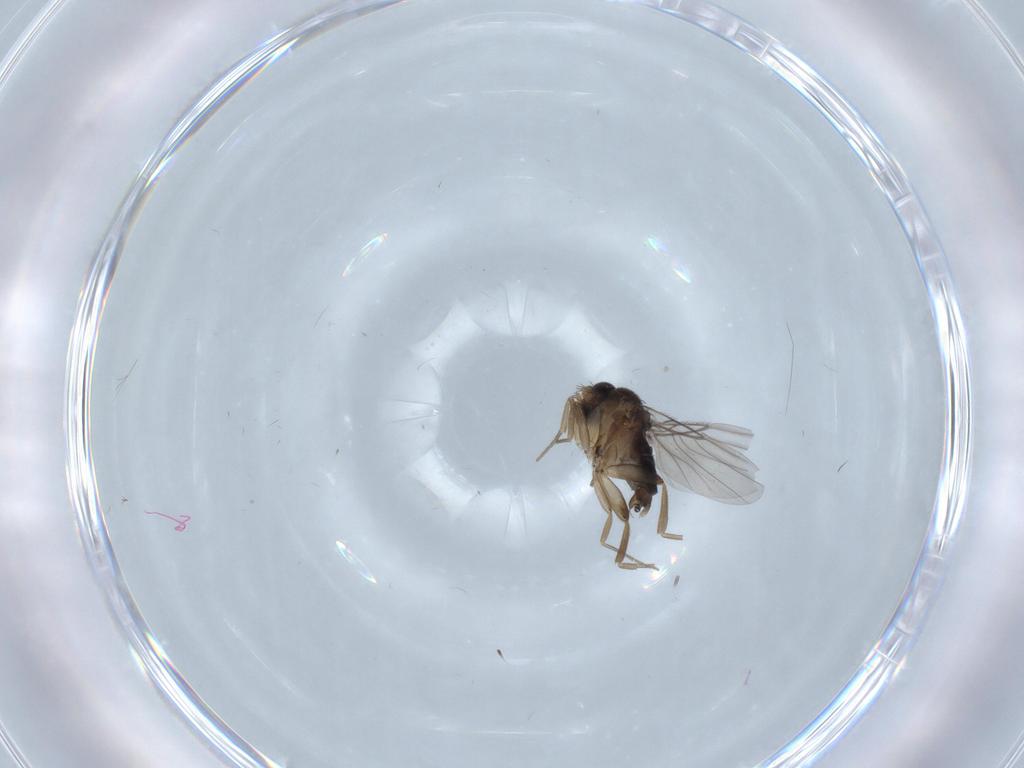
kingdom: Animalia
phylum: Arthropoda
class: Insecta
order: Diptera
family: Phoridae
